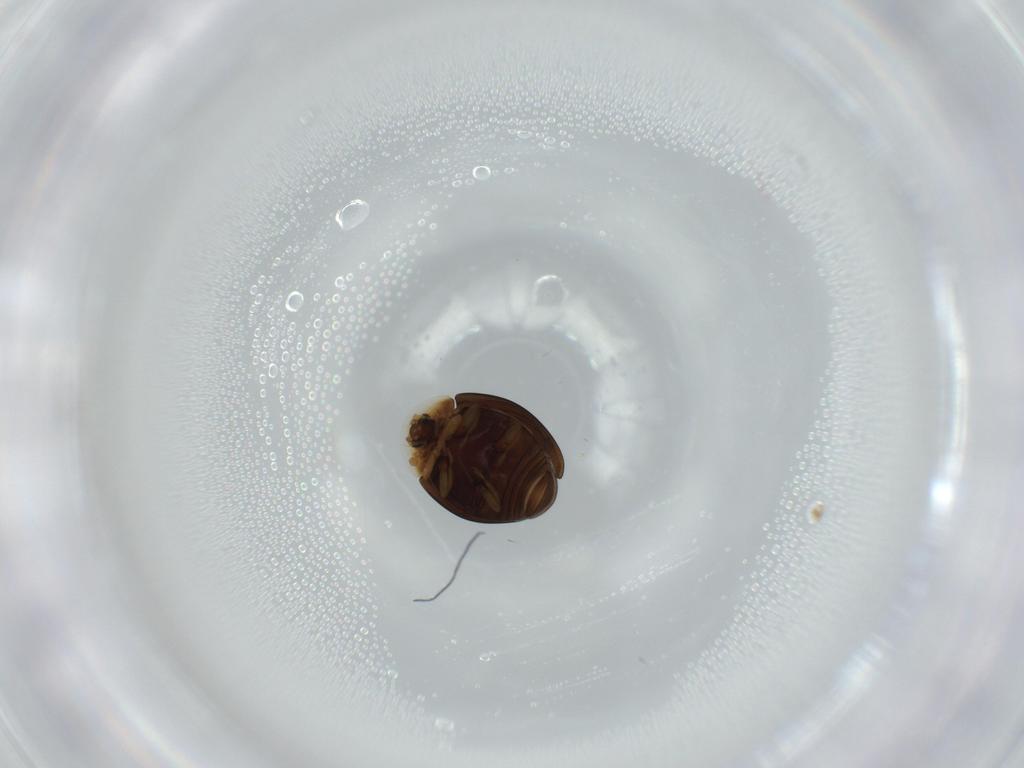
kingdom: Animalia
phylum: Arthropoda
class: Insecta
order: Coleoptera
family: Corylophidae
